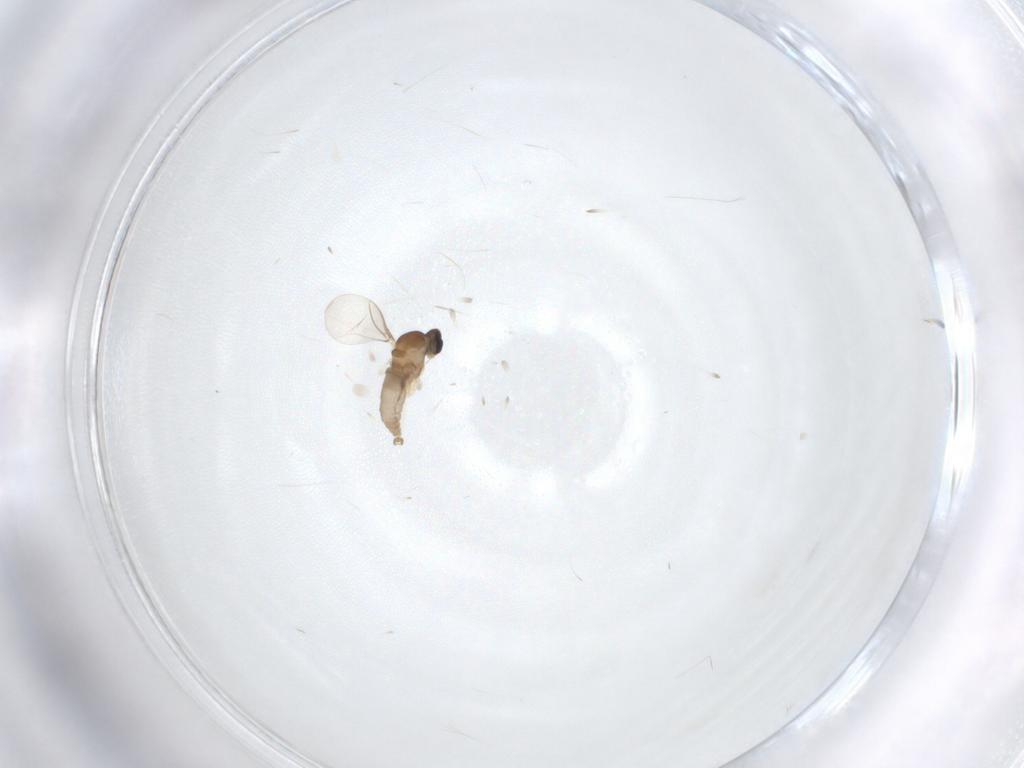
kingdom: Animalia
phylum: Arthropoda
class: Insecta
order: Diptera
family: Cecidomyiidae
